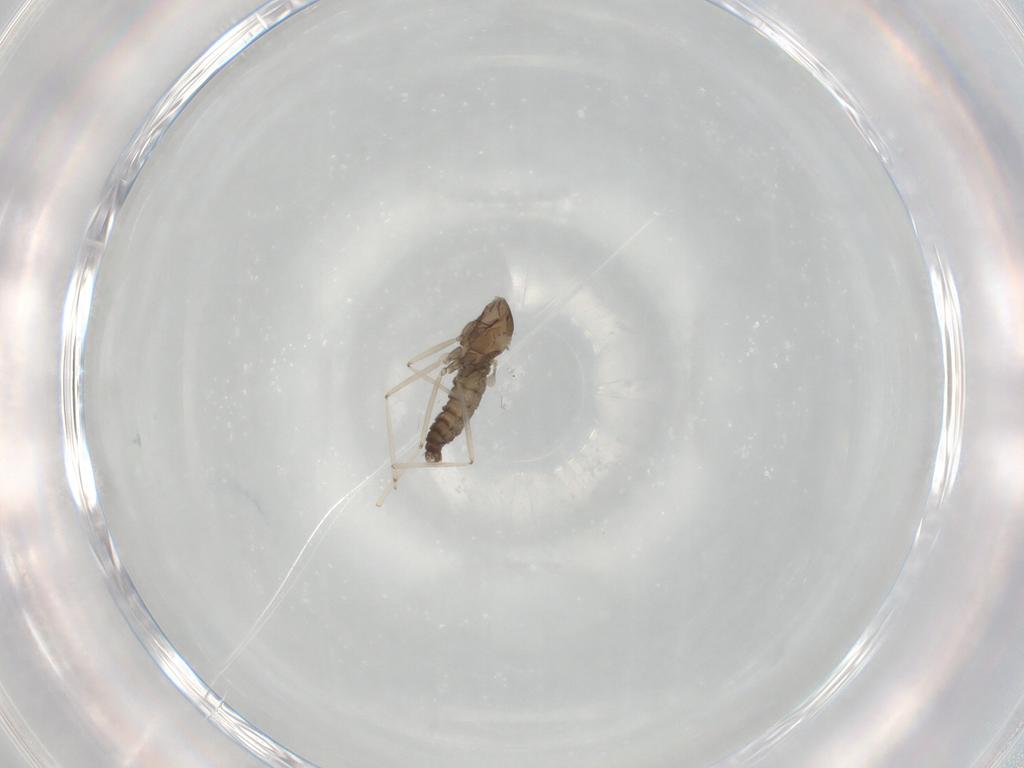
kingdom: Animalia
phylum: Arthropoda
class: Insecta
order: Diptera
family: Cecidomyiidae
